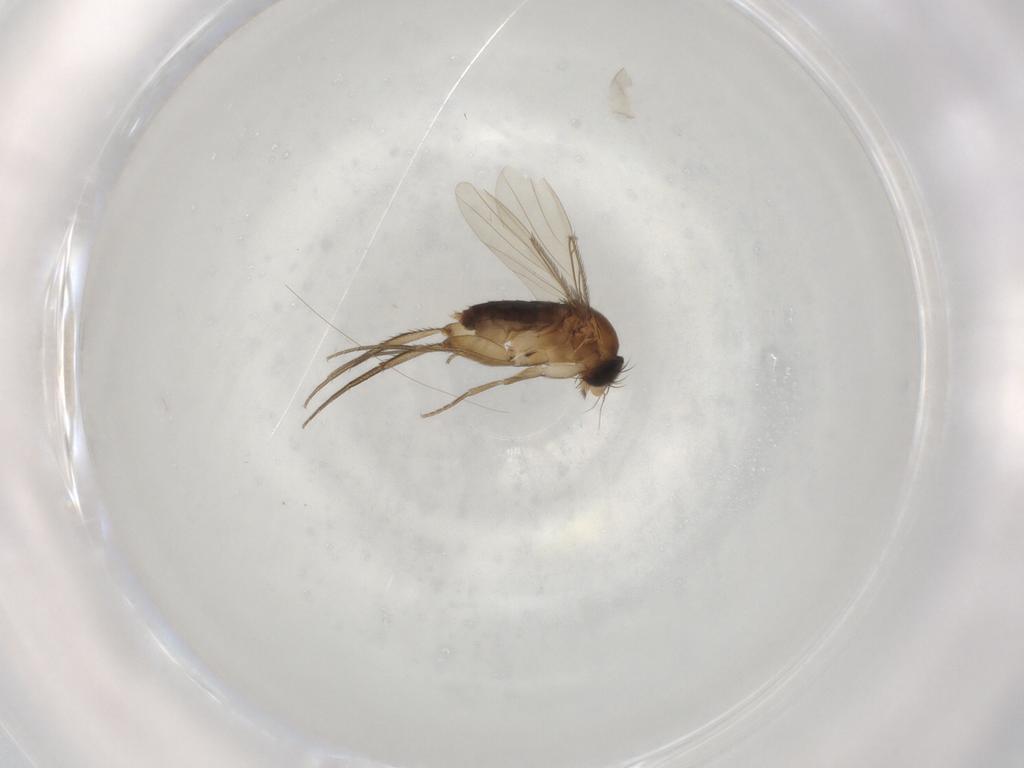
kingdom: Animalia
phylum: Arthropoda
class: Insecta
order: Diptera
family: Phoridae
